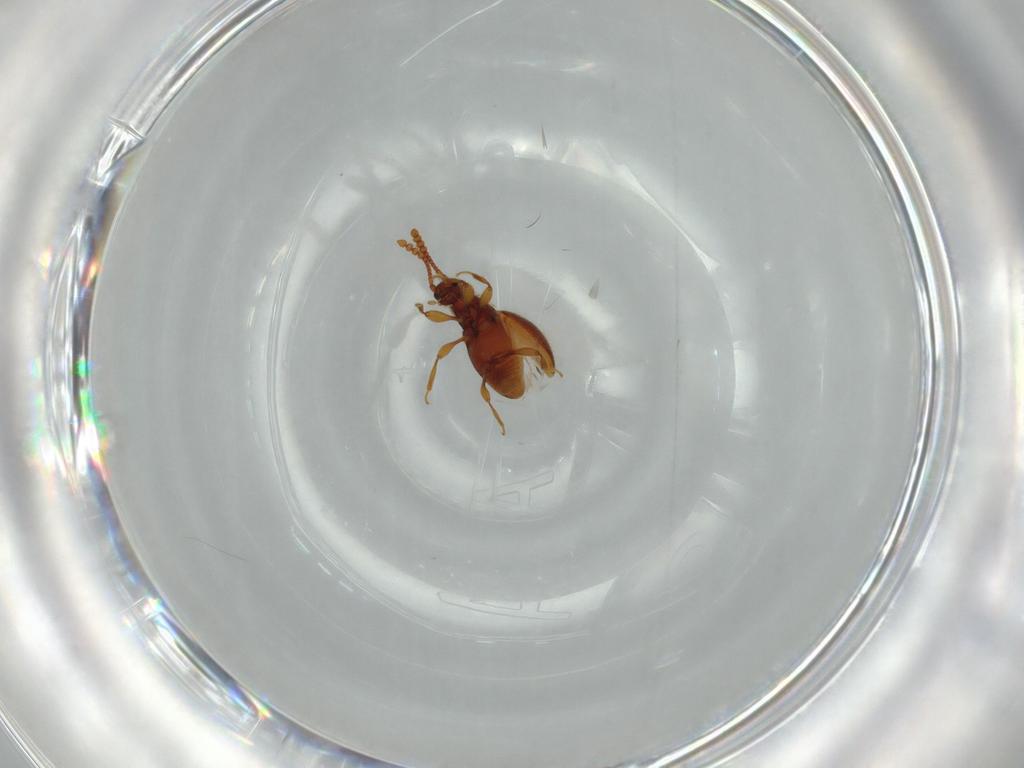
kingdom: Animalia
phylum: Arthropoda
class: Insecta
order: Coleoptera
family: Staphylinidae
